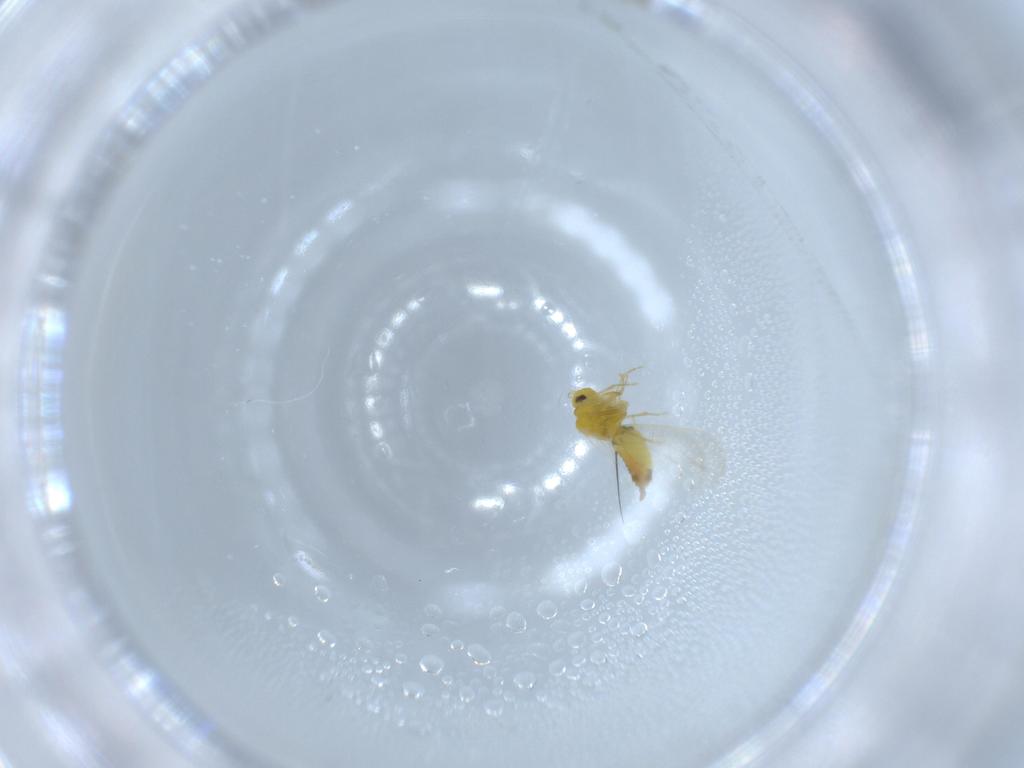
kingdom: Animalia
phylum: Arthropoda
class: Insecta
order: Hemiptera
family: Aleyrodidae
